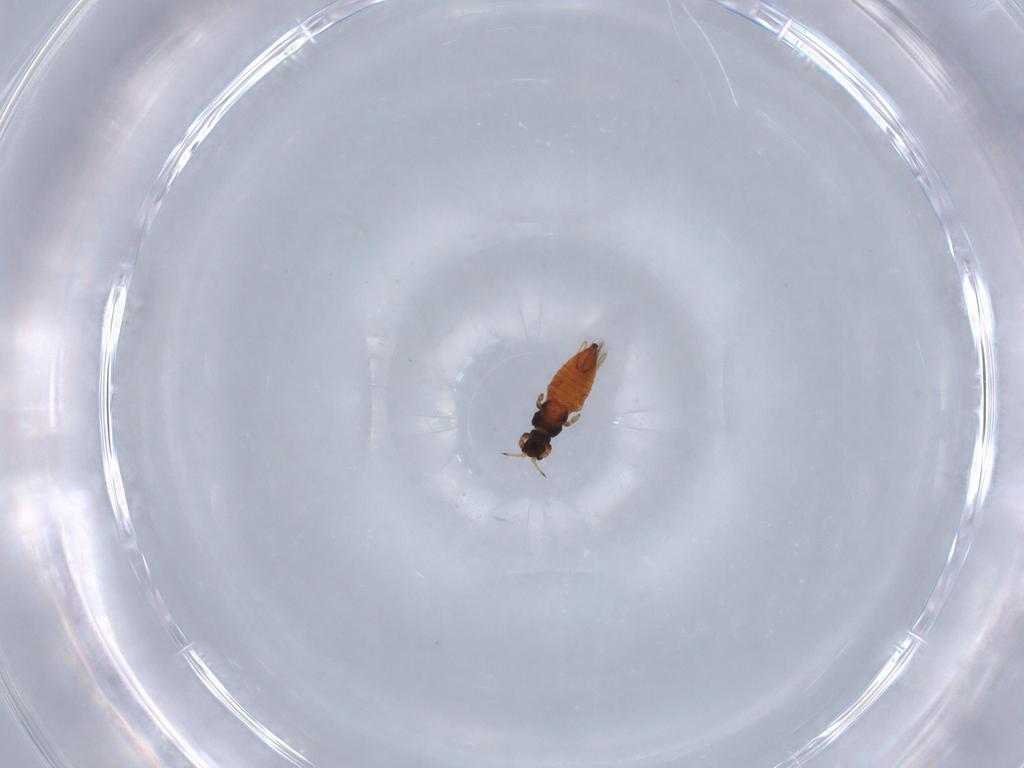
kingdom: Animalia
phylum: Arthropoda
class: Insecta
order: Thysanoptera
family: Thripidae
